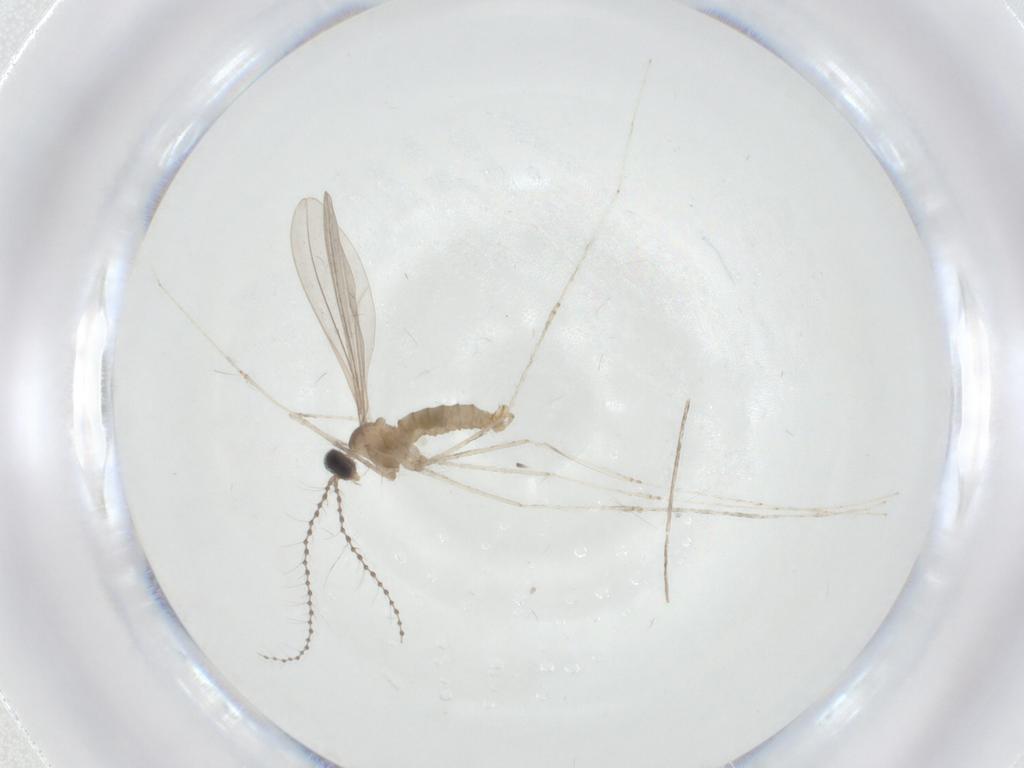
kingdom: Animalia
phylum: Arthropoda
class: Insecta
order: Diptera
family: Cecidomyiidae
